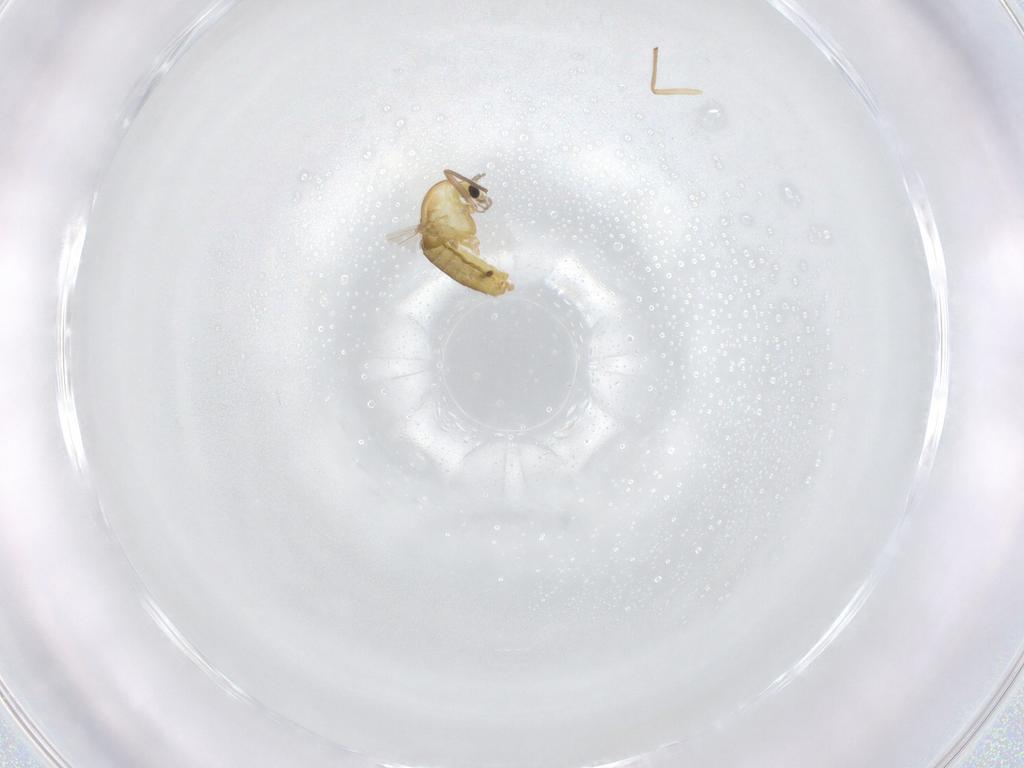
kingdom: Animalia
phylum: Arthropoda
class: Insecta
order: Diptera
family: Chironomidae
